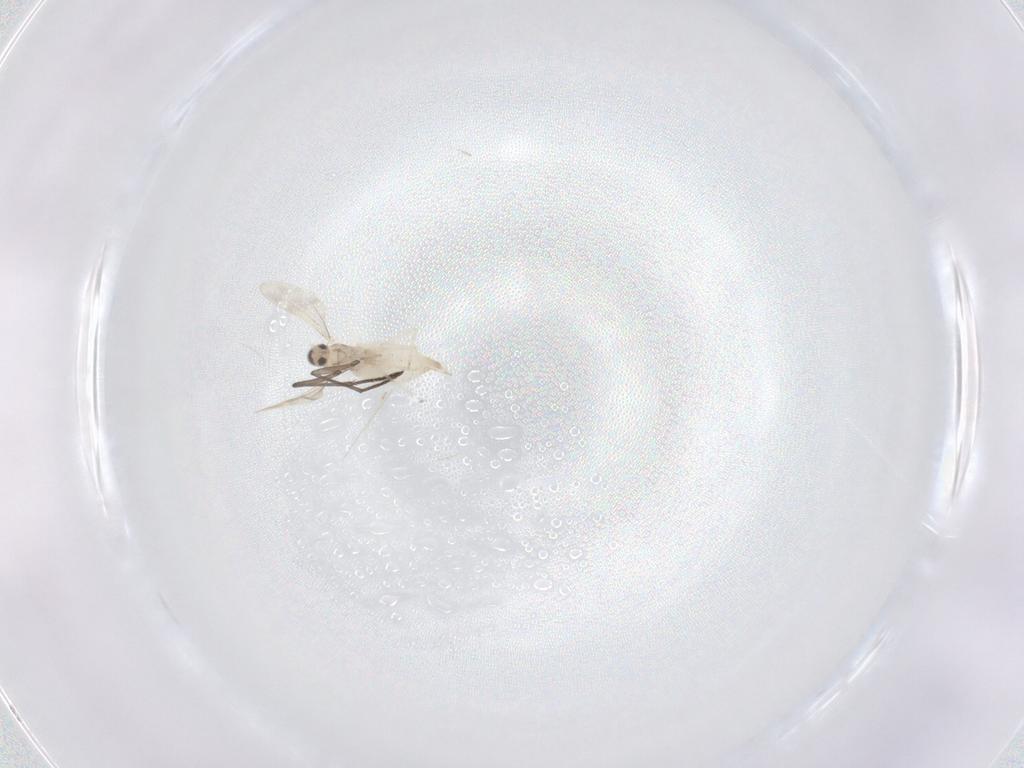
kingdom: Animalia
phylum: Arthropoda
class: Insecta
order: Diptera
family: Cecidomyiidae
